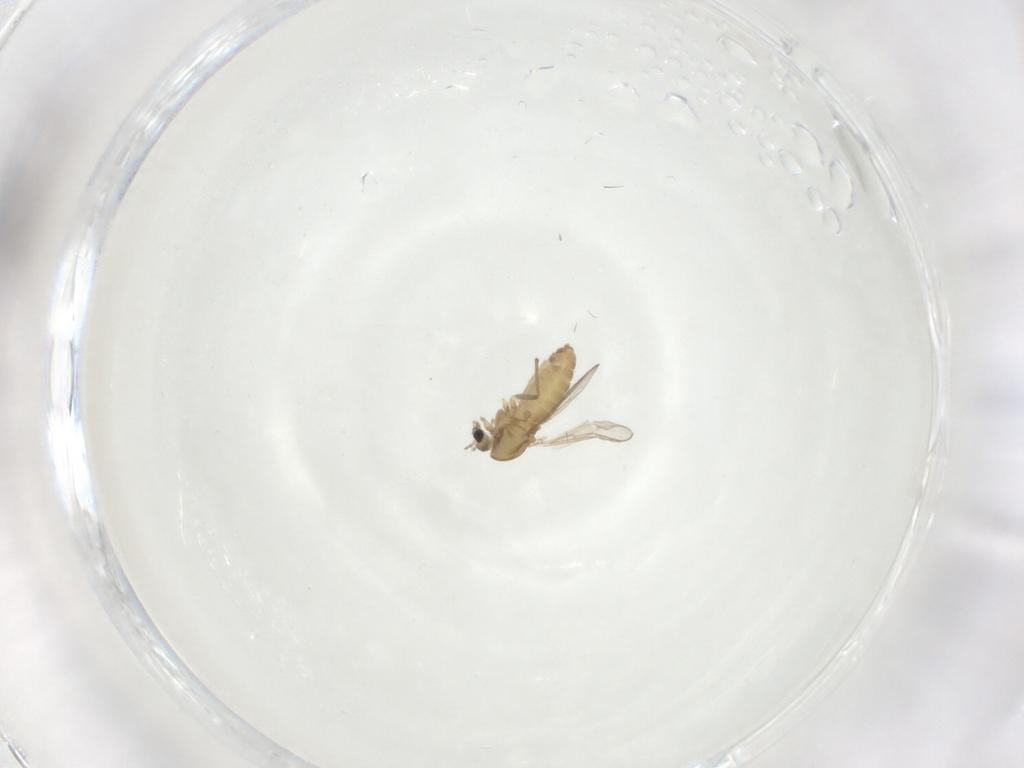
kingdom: Animalia
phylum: Arthropoda
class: Insecta
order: Diptera
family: Chironomidae
